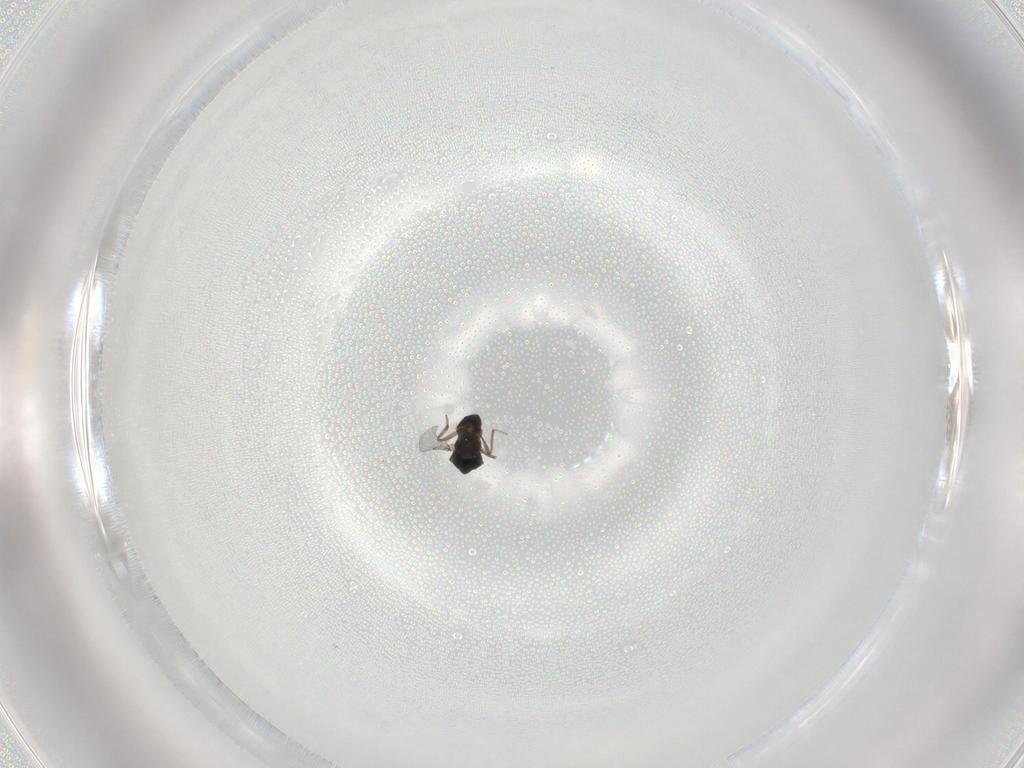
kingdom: Animalia
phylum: Arthropoda
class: Insecta
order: Diptera
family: Ceratopogonidae
